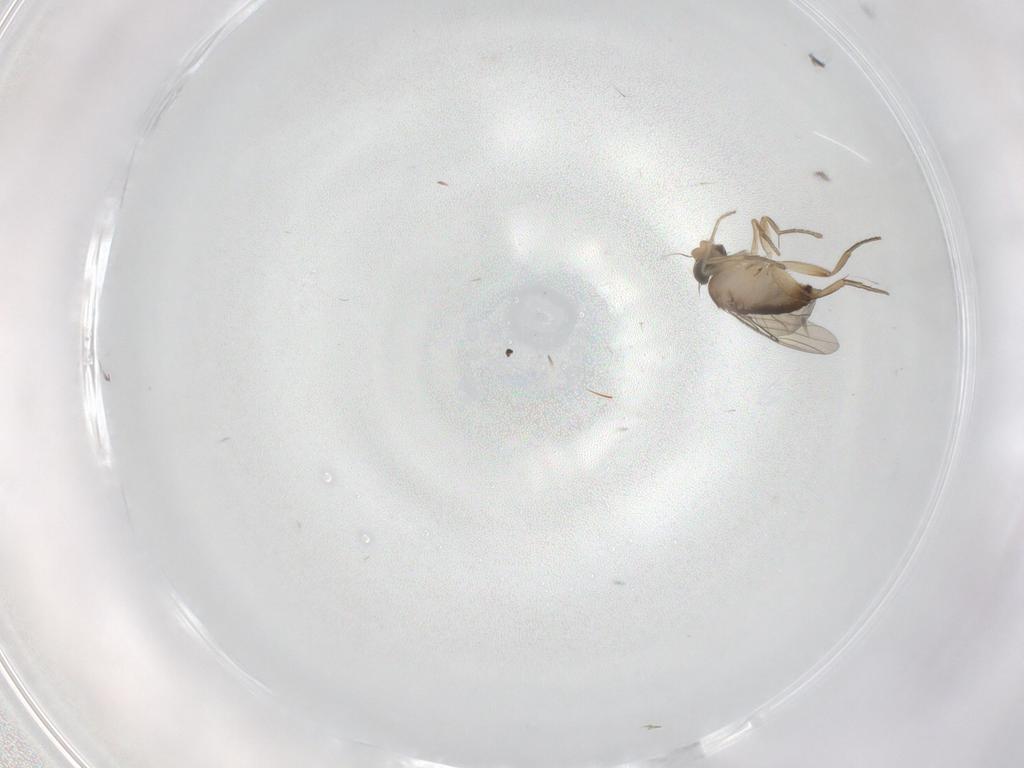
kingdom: Animalia
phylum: Arthropoda
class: Insecta
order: Diptera
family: Phoridae
